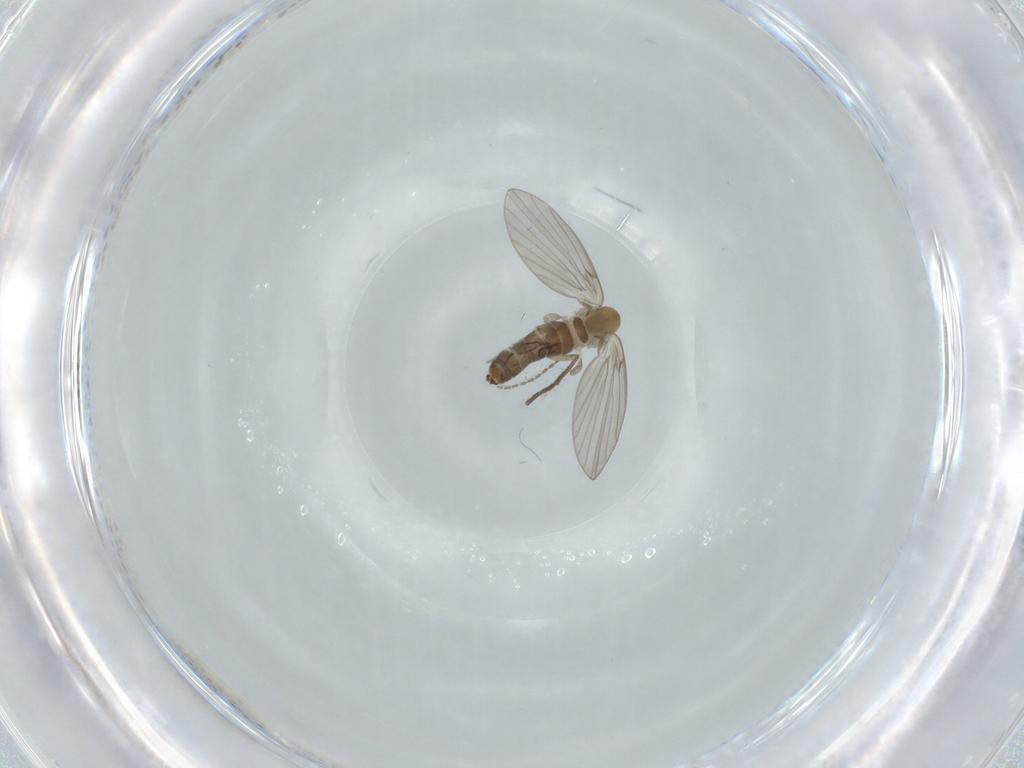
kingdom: Animalia
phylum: Arthropoda
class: Insecta
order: Diptera
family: Psychodidae
